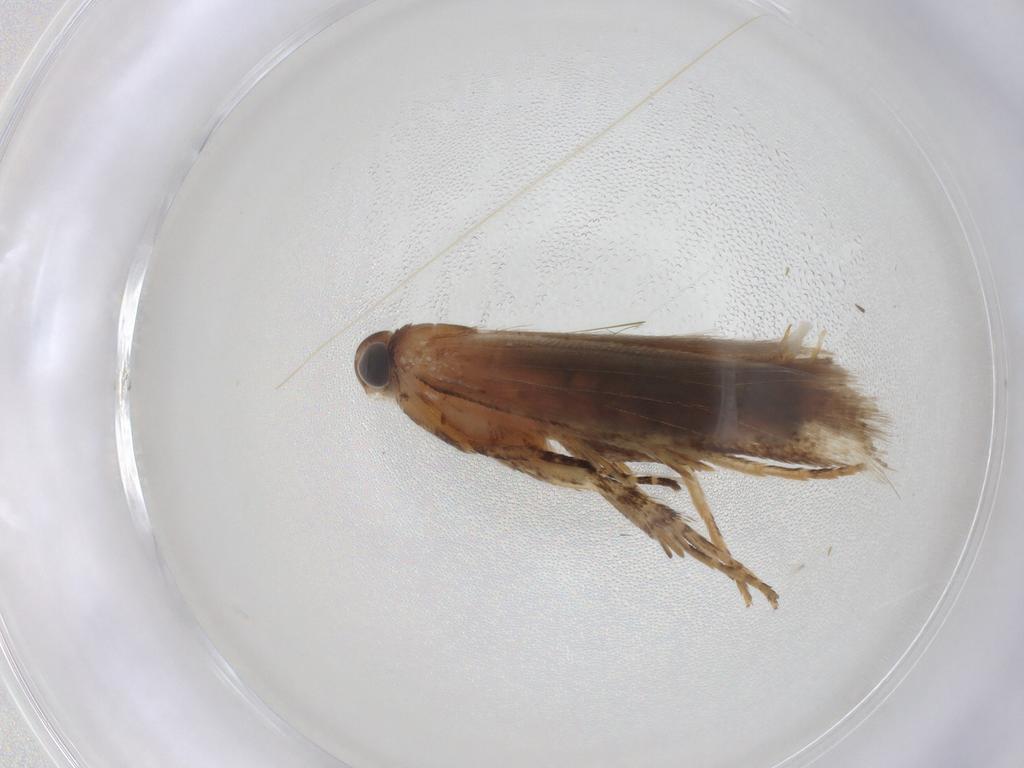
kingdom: Animalia
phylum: Arthropoda
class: Insecta
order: Lepidoptera
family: Gelechiidae
